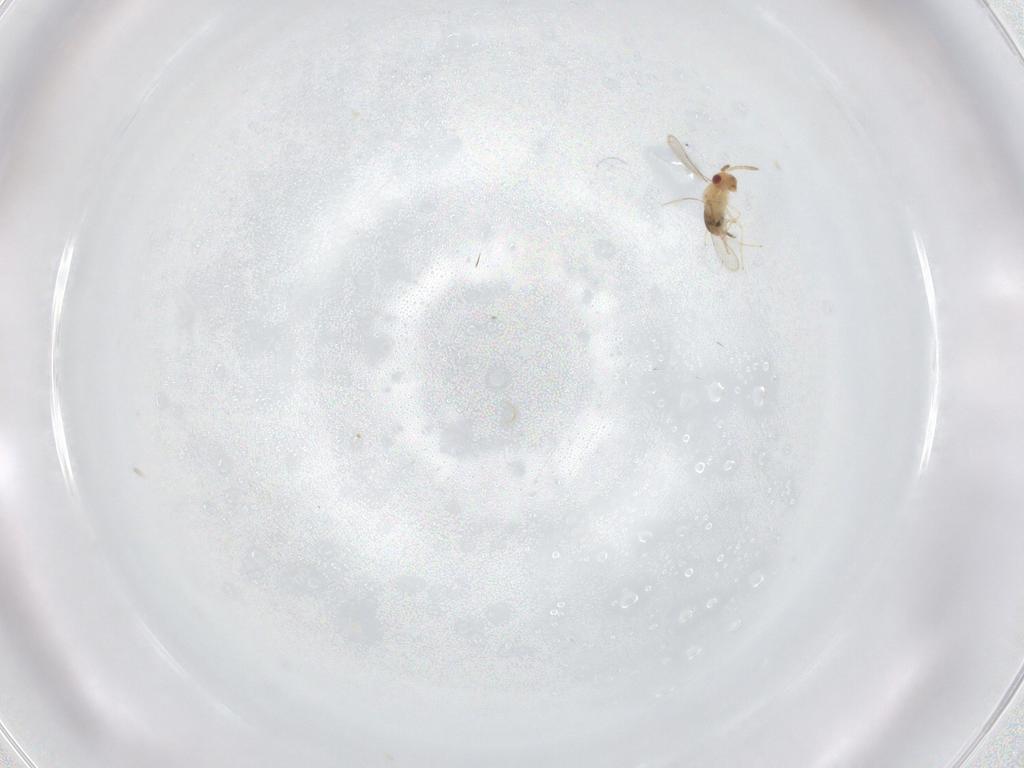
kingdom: Animalia
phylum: Arthropoda
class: Insecta
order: Hymenoptera
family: Aphelinidae
